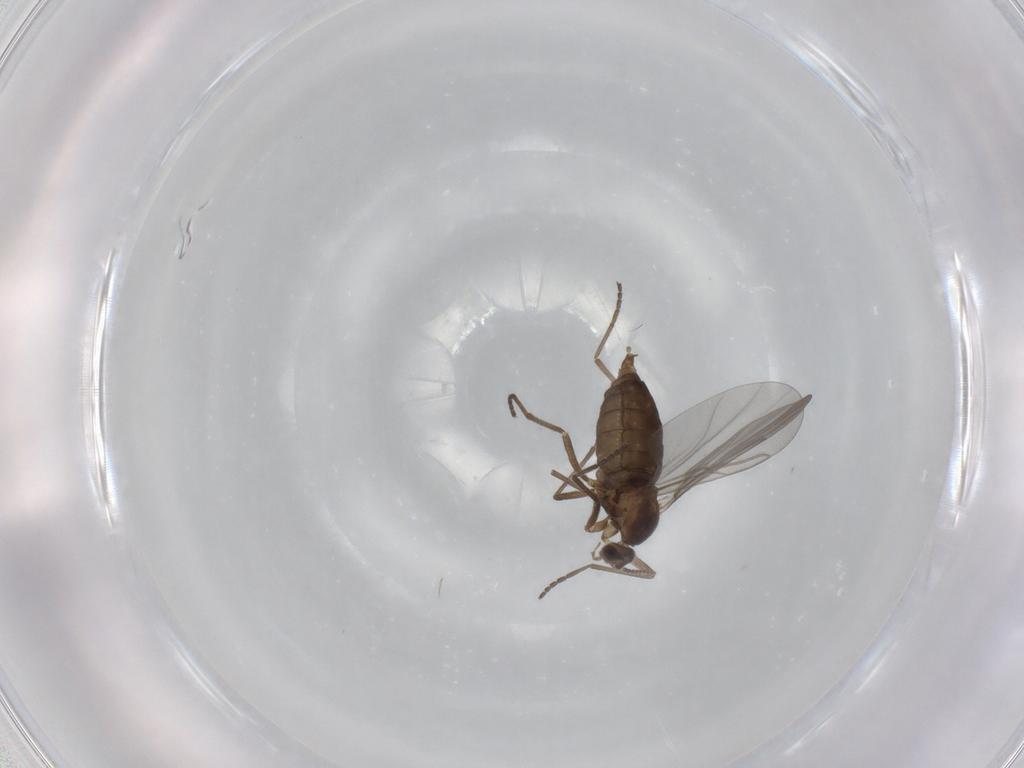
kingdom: Animalia
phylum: Arthropoda
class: Insecta
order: Diptera
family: Cecidomyiidae
